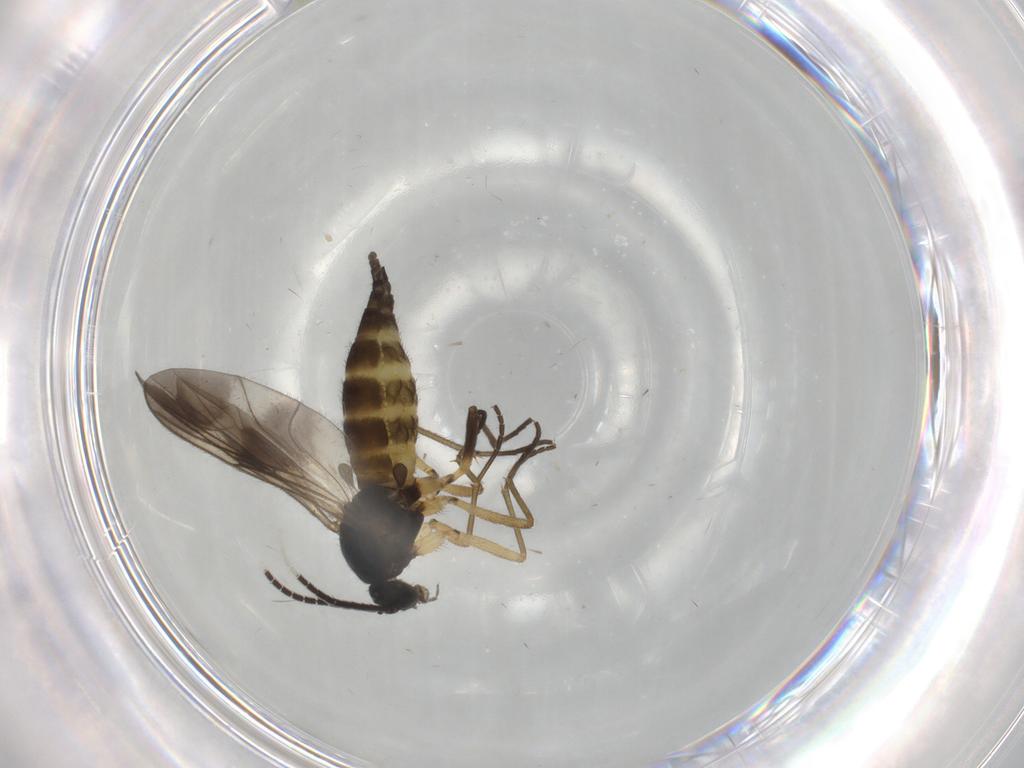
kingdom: Animalia
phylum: Arthropoda
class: Insecta
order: Diptera
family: Sciaridae
